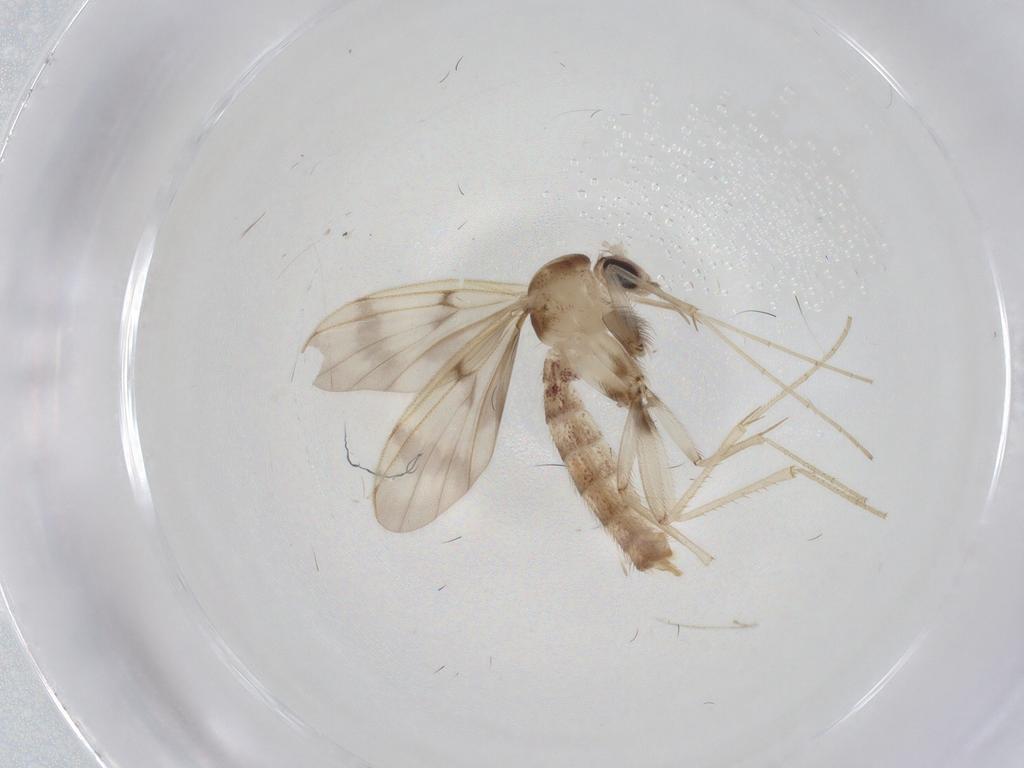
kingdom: Animalia
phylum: Arthropoda
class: Insecta
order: Diptera
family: Mycetophilidae
